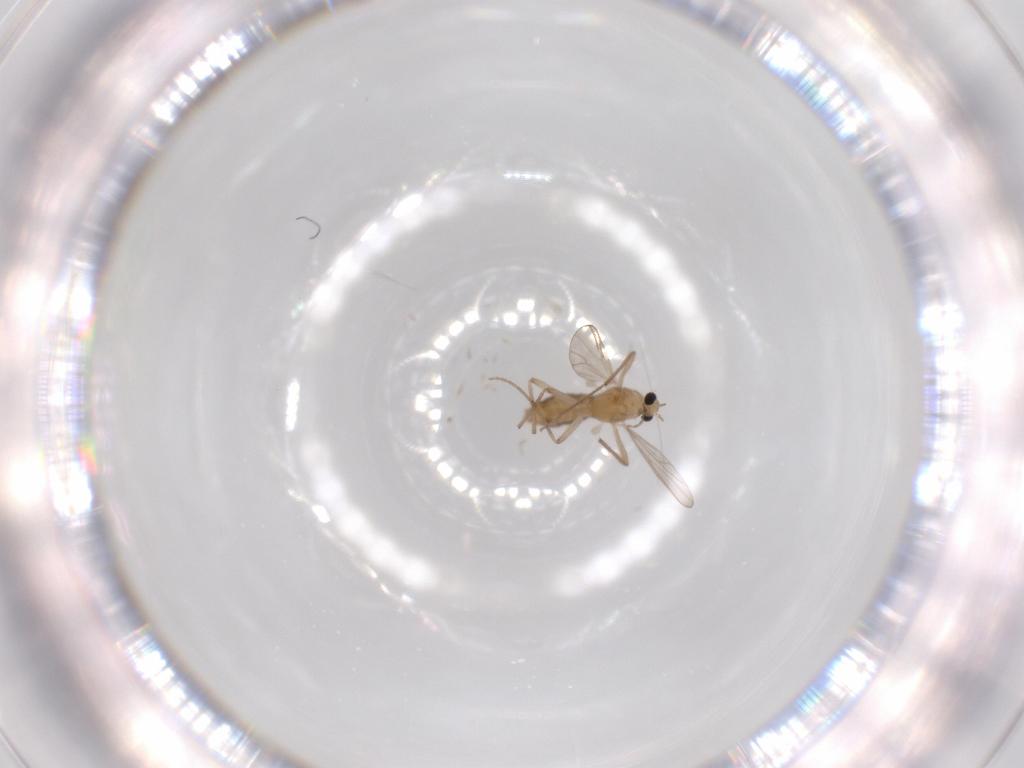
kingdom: Animalia
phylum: Arthropoda
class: Insecta
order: Diptera
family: Chironomidae
